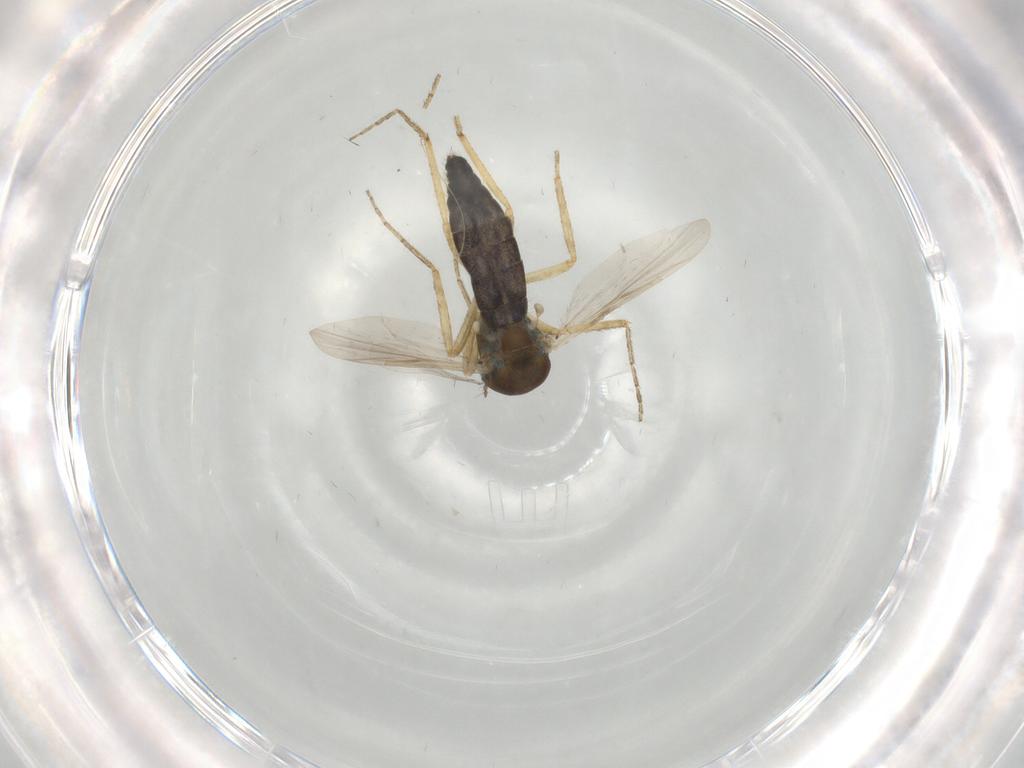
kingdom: Animalia
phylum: Arthropoda
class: Insecta
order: Diptera
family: Ceratopogonidae
